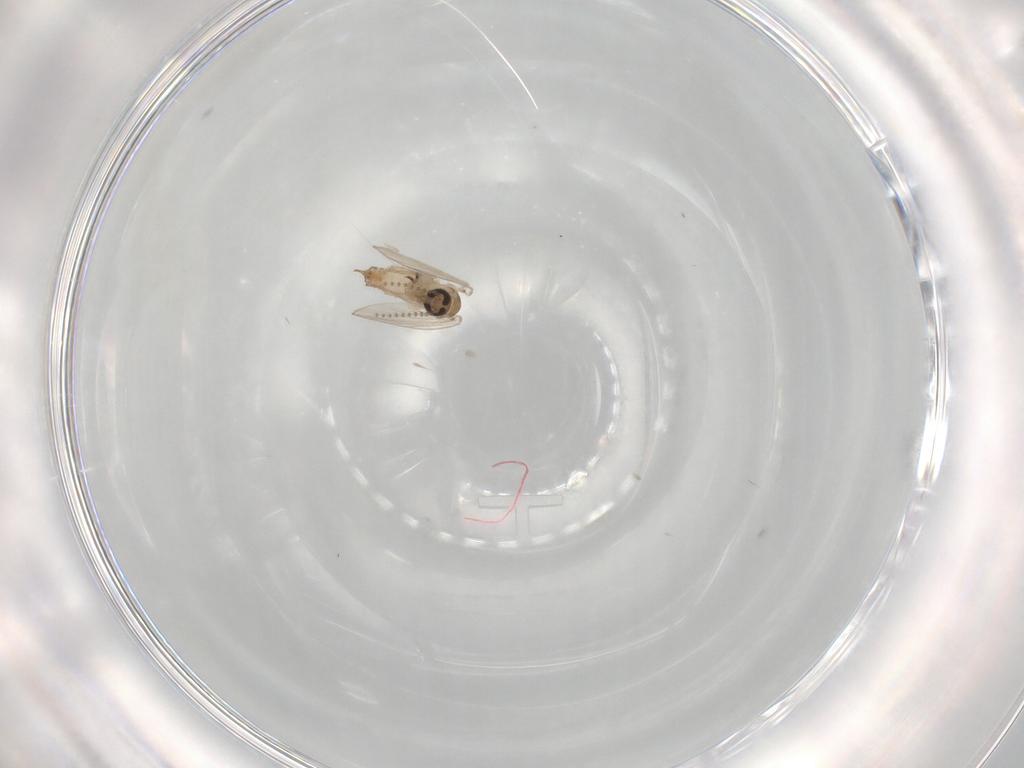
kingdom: Animalia
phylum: Arthropoda
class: Insecta
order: Diptera
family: Psychodidae
